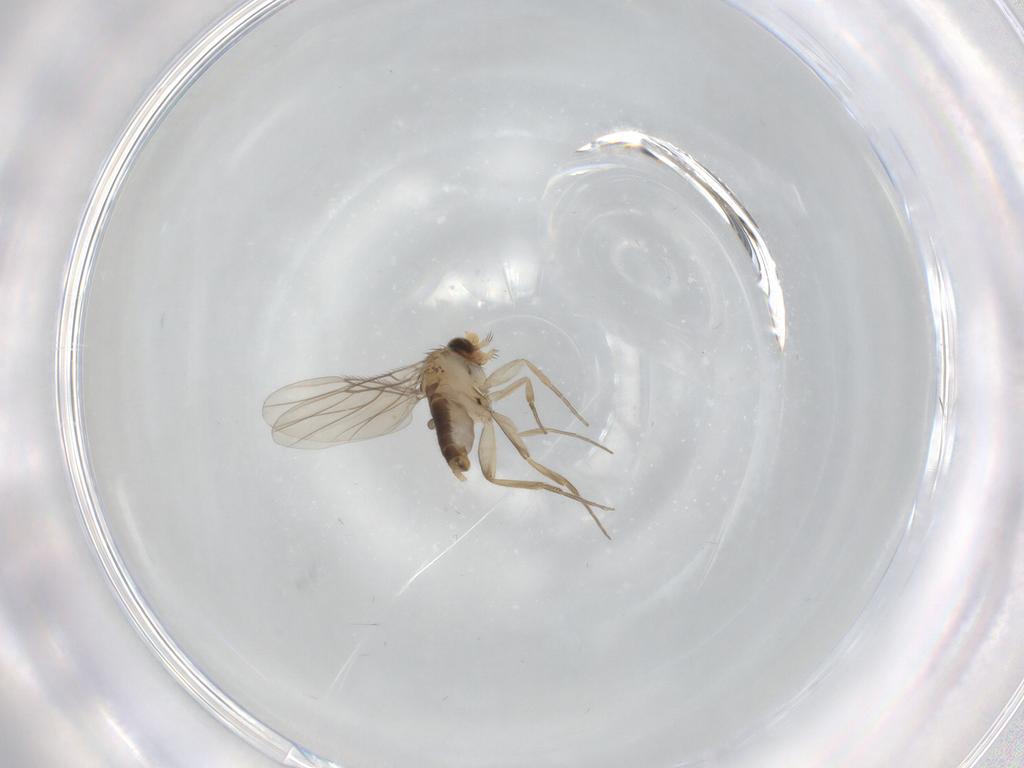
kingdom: Animalia
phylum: Arthropoda
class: Insecta
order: Diptera
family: Phoridae
